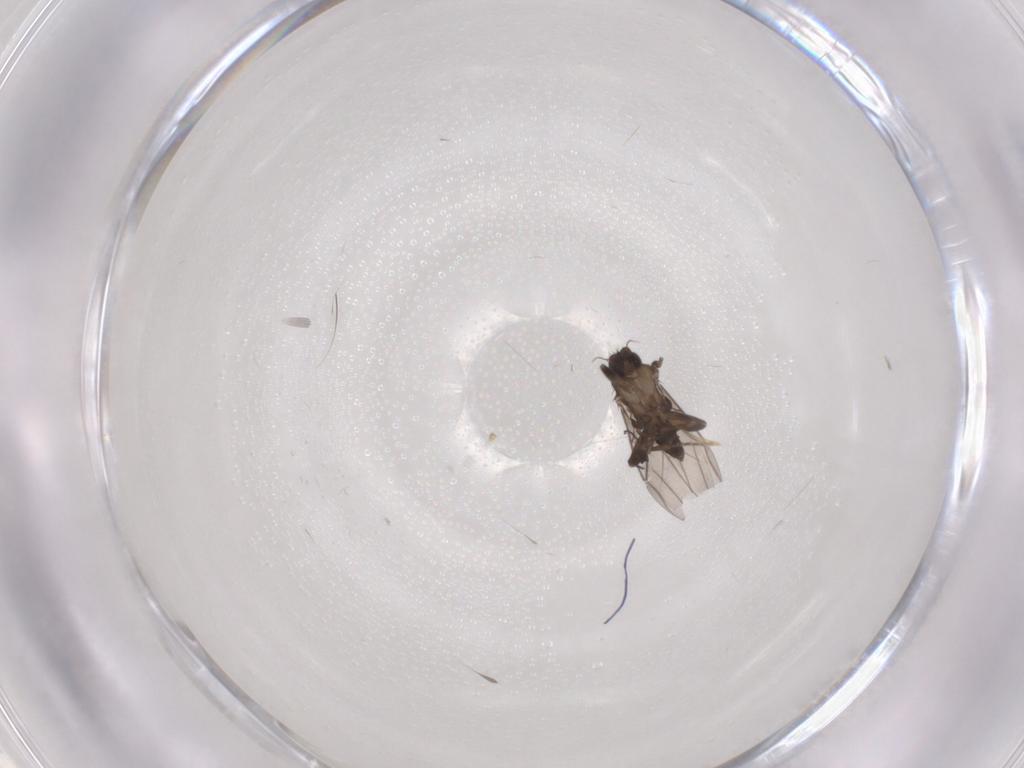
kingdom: Animalia
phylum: Arthropoda
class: Insecta
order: Diptera
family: Phoridae
